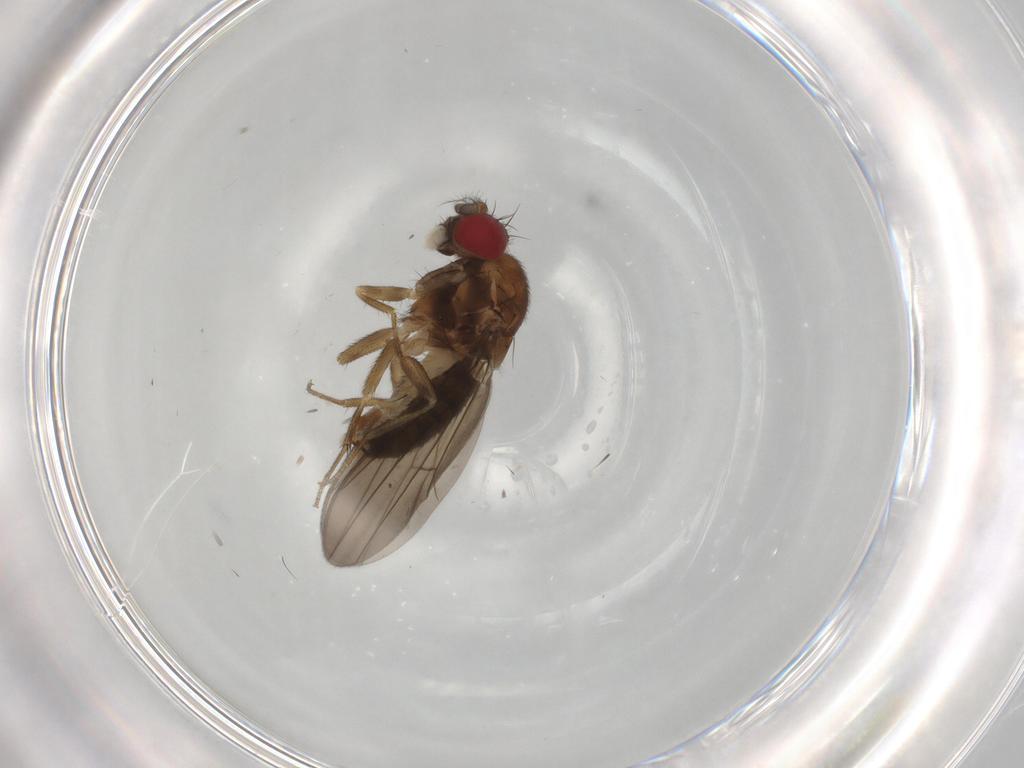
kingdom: Animalia
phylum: Arthropoda
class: Insecta
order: Diptera
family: Drosophilidae
